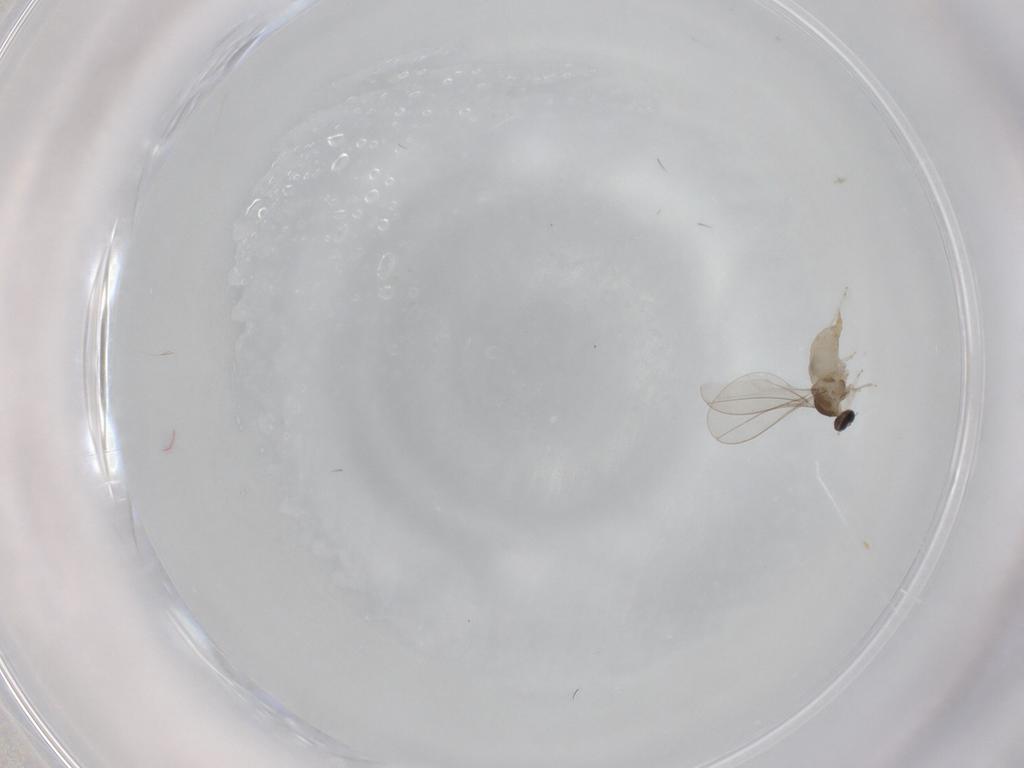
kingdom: Animalia
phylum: Arthropoda
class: Insecta
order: Diptera
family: Cecidomyiidae
